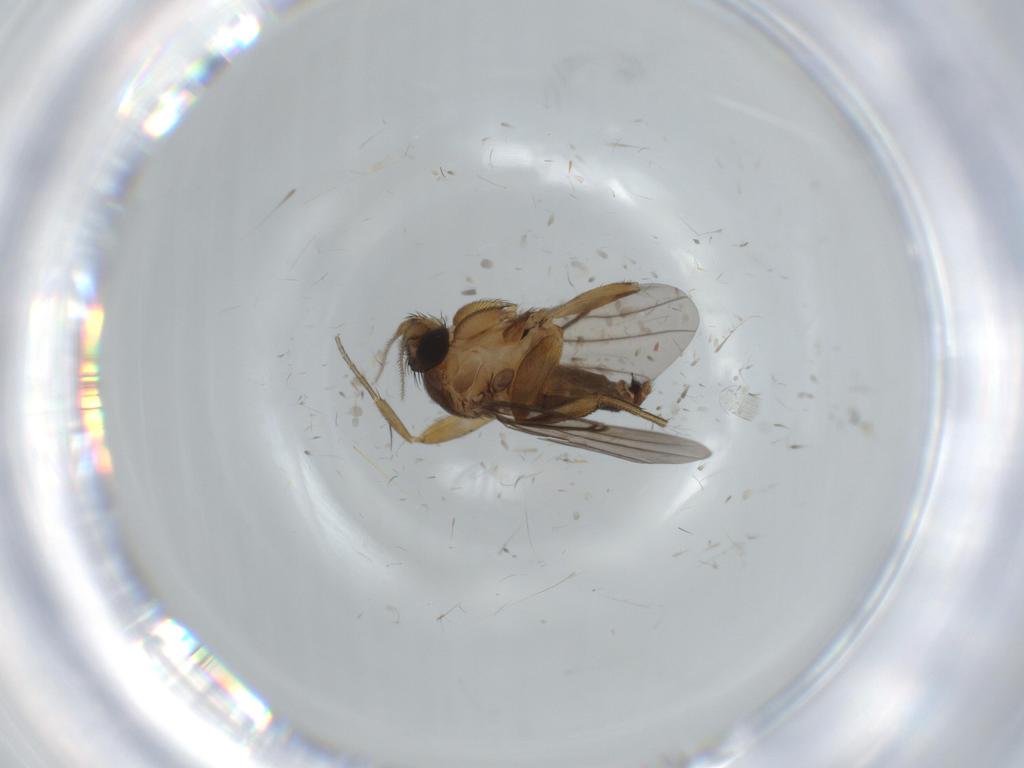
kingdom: Animalia
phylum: Arthropoda
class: Insecta
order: Diptera
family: Phoridae
